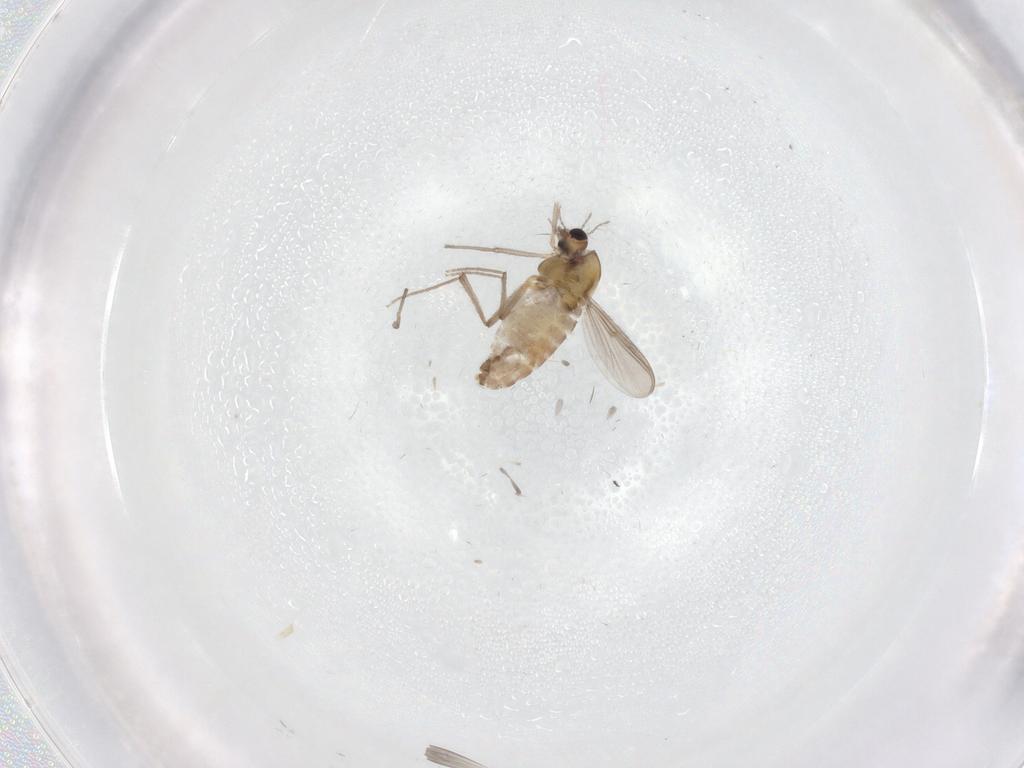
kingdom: Animalia
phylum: Arthropoda
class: Insecta
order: Diptera
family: Chironomidae
